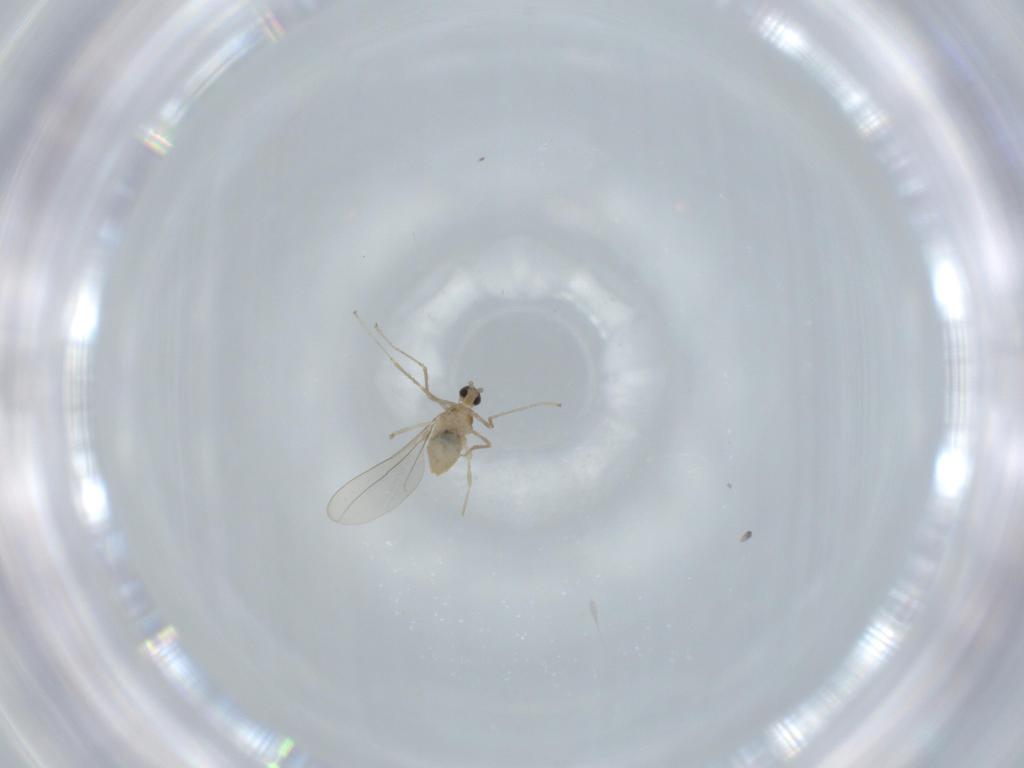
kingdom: Animalia
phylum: Arthropoda
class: Insecta
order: Diptera
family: Cecidomyiidae
